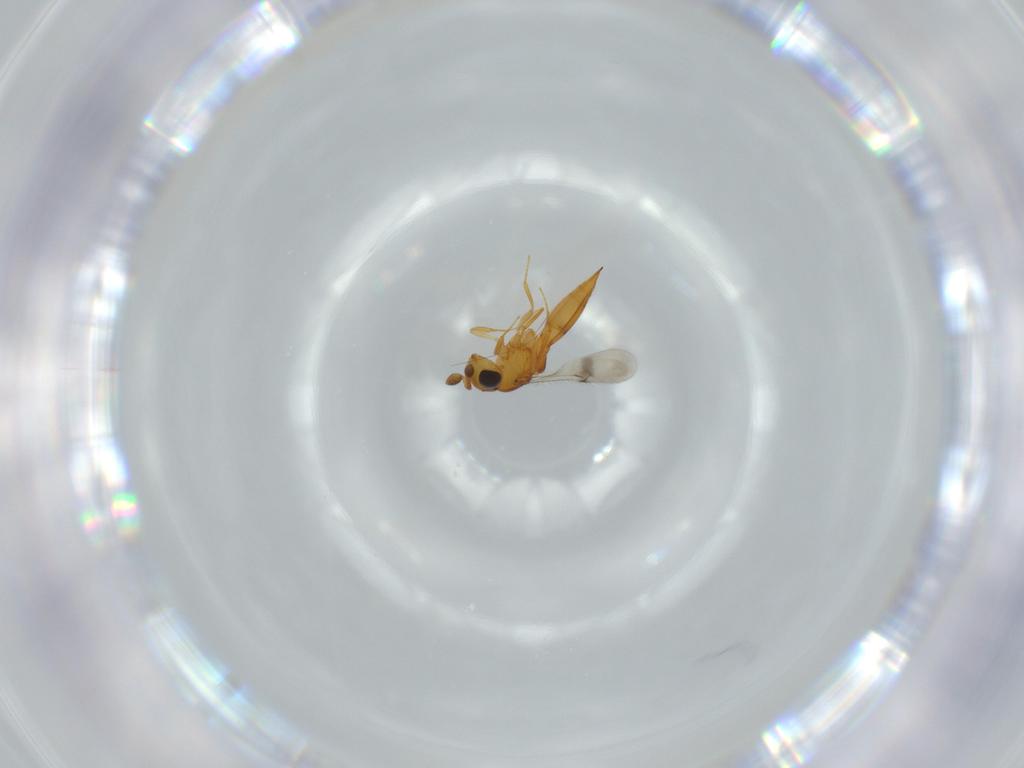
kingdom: Animalia
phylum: Arthropoda
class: Insecta
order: Hymenoptera
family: Scelionidae
